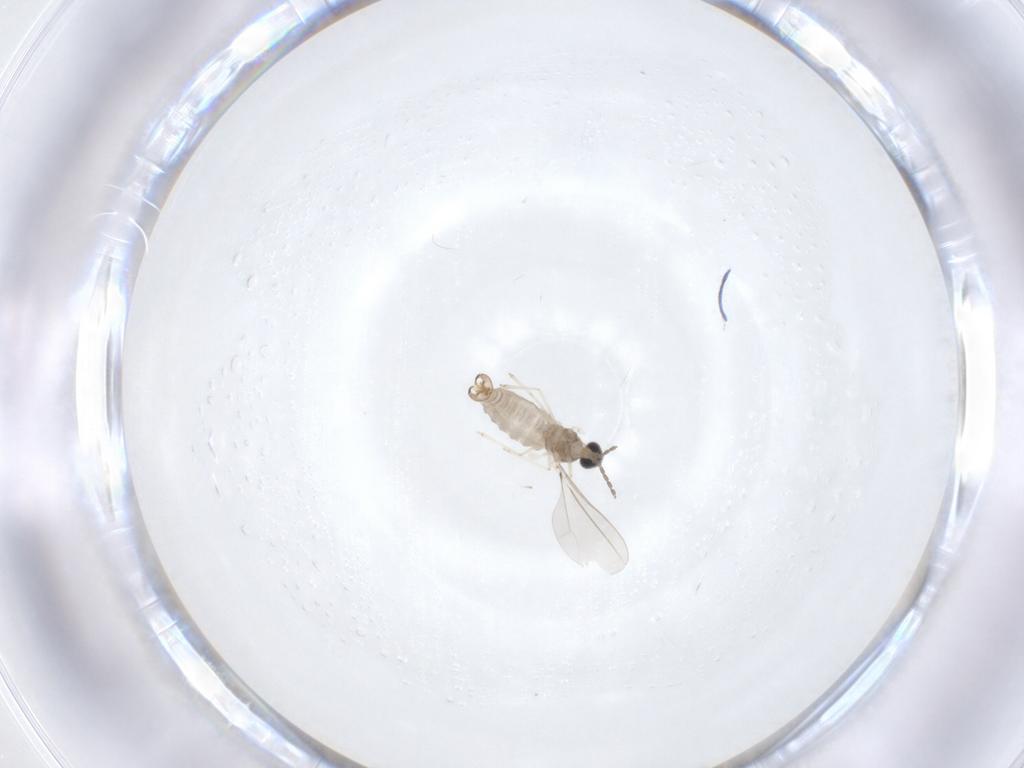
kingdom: Animalia
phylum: Arthropoda
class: Insecta
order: Diptera
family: Cecidomyiidae
